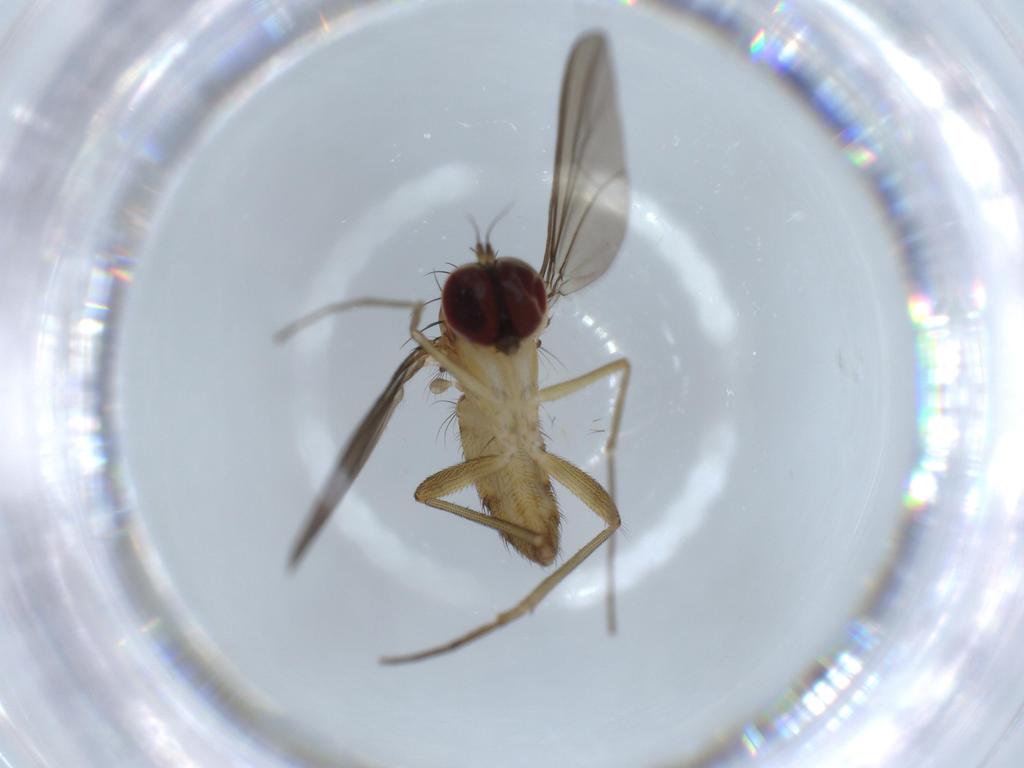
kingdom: Animalia
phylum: Arthropoda
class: Insecta
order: Diptera
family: Dolichopodidae
